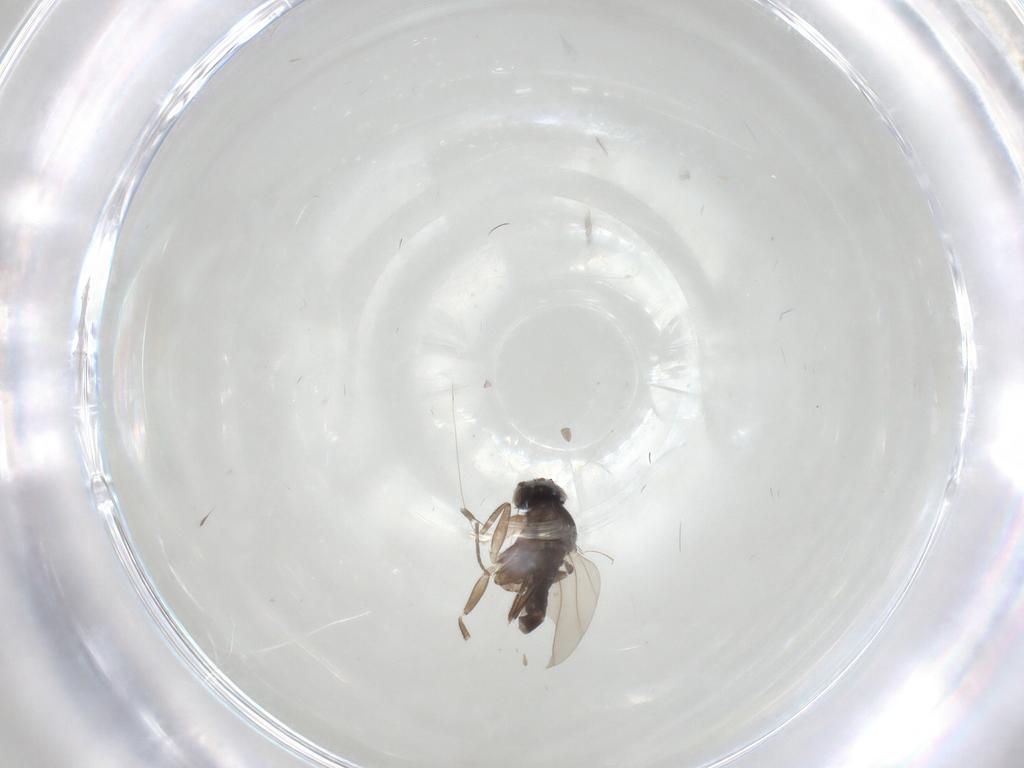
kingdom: Animalia
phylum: Arthropoda
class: Insecta
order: Diptera
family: Phoridae
